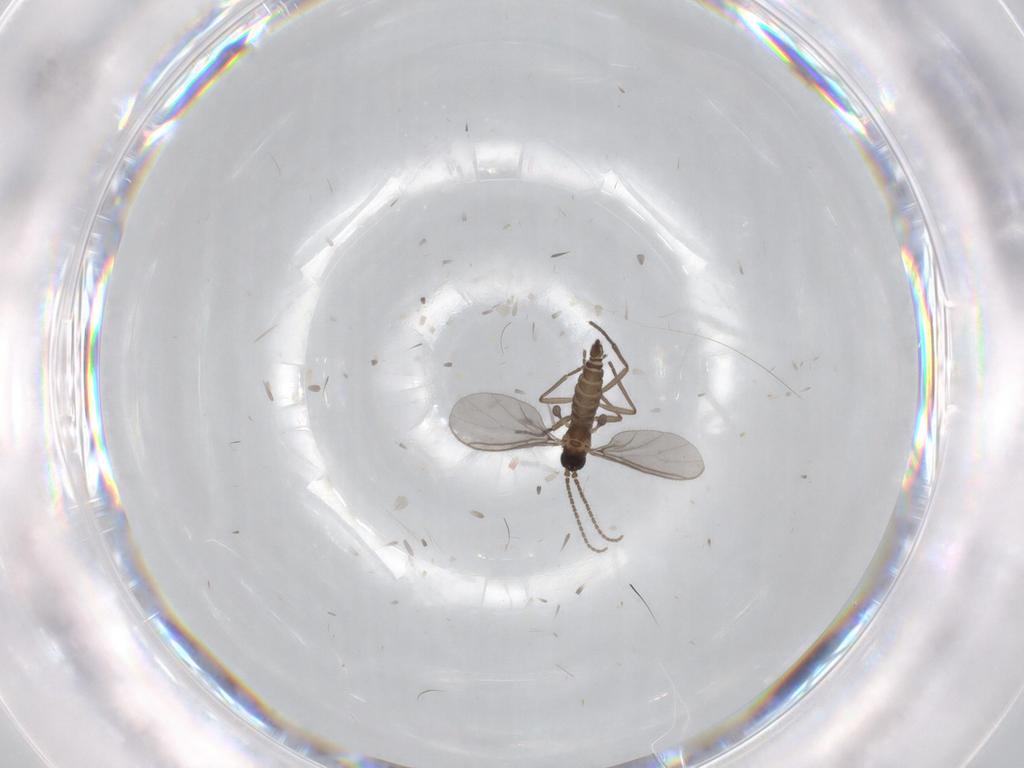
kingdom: Animalia
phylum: Arthropoda
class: Insecta
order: Diptera
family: Sciaridae
